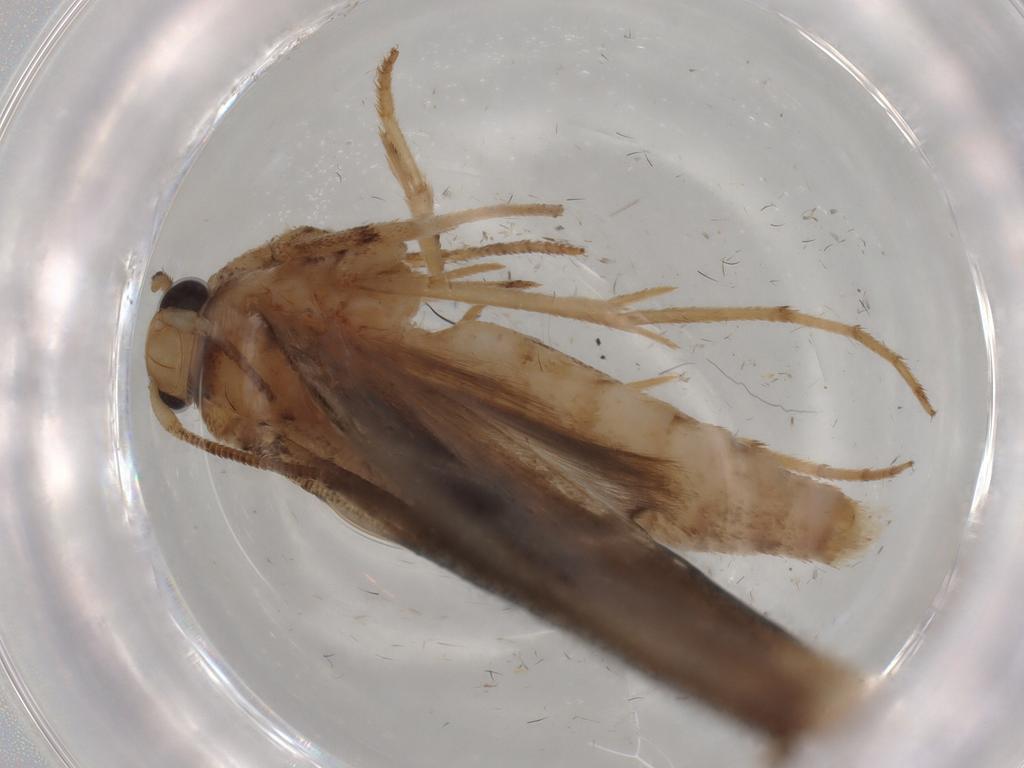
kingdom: Animalia
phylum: Arthropoda
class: Insecta
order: Lepidoptera
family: Yponomeutidae
